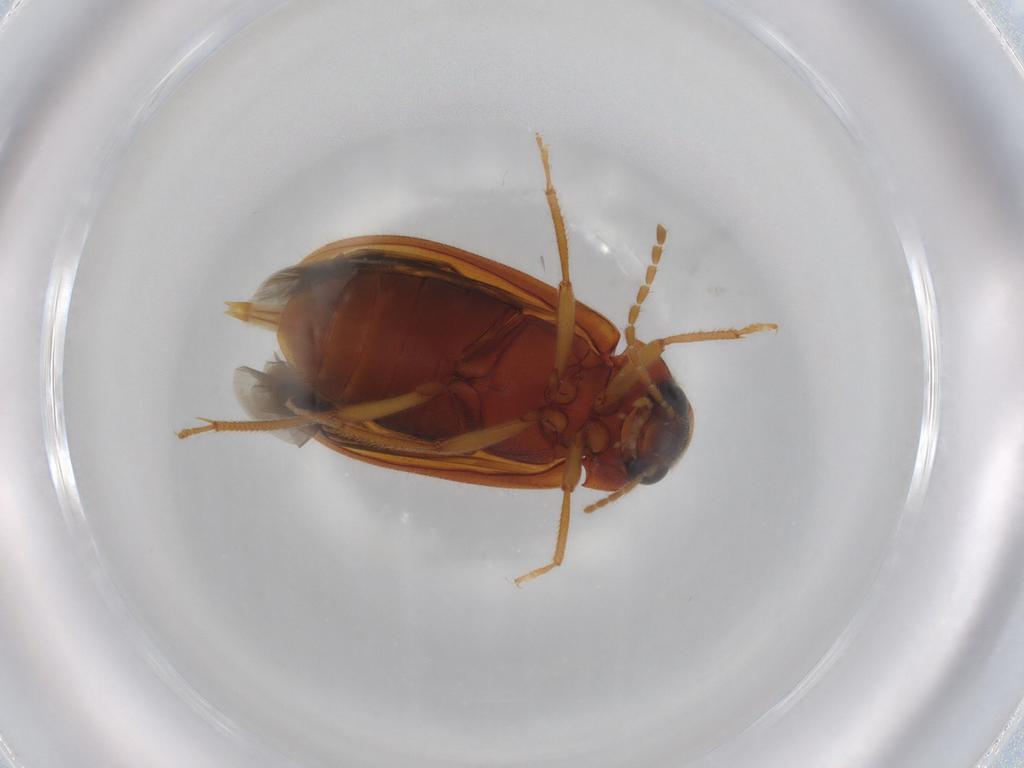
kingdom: Animalia
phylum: Arthropoda
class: Insecta
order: Coleoptera
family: Ptilodactylidae
